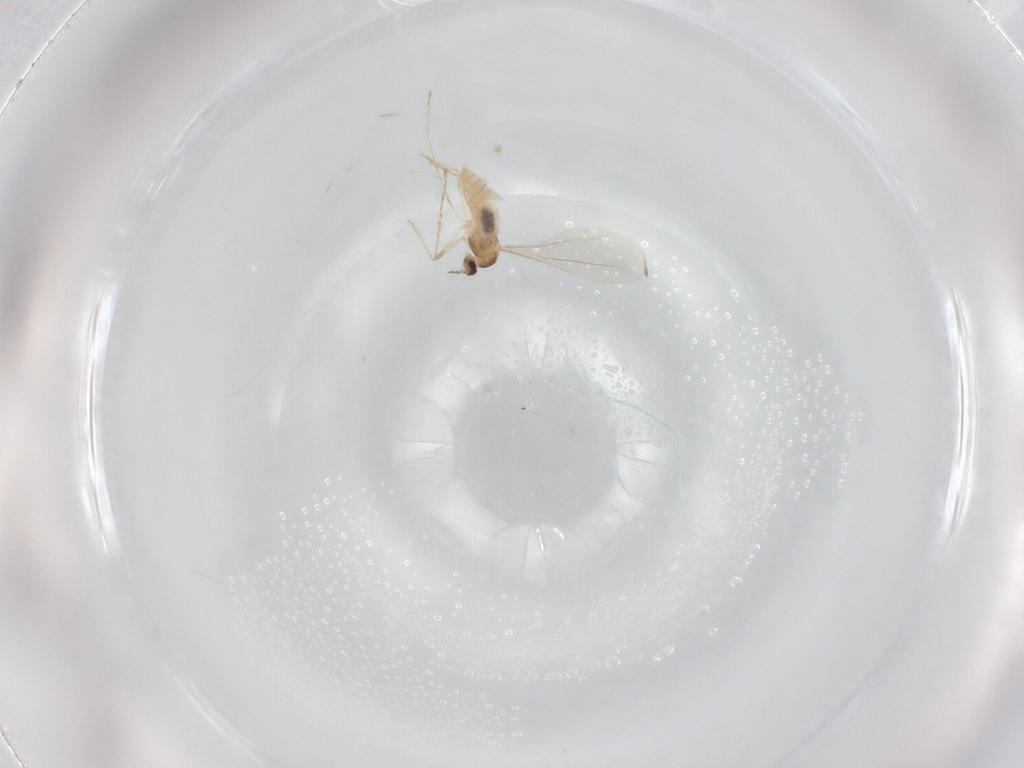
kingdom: Animalia
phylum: Arthropoda
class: Insecta
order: Diptera
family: Cecidomyiidae
